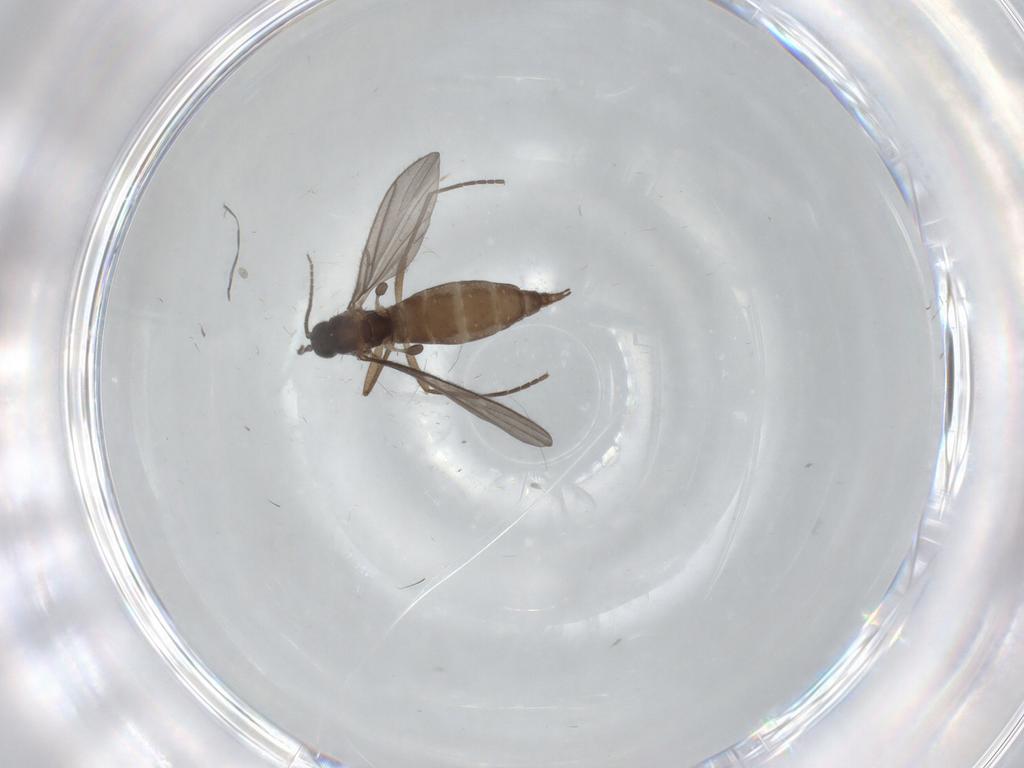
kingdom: Animalia
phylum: Arthropoda
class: Insecta
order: Diptera
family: Sciaridae
